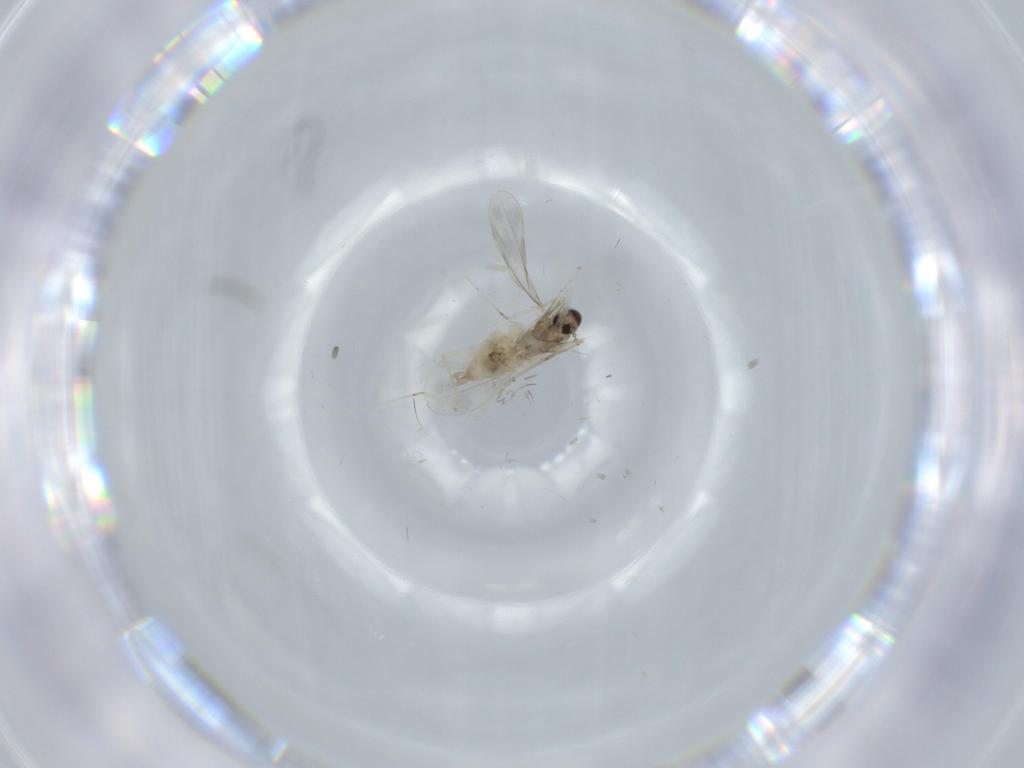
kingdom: Animalia
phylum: Arthropoda
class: Insecta
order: Diptera
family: Cecidomyiidae
